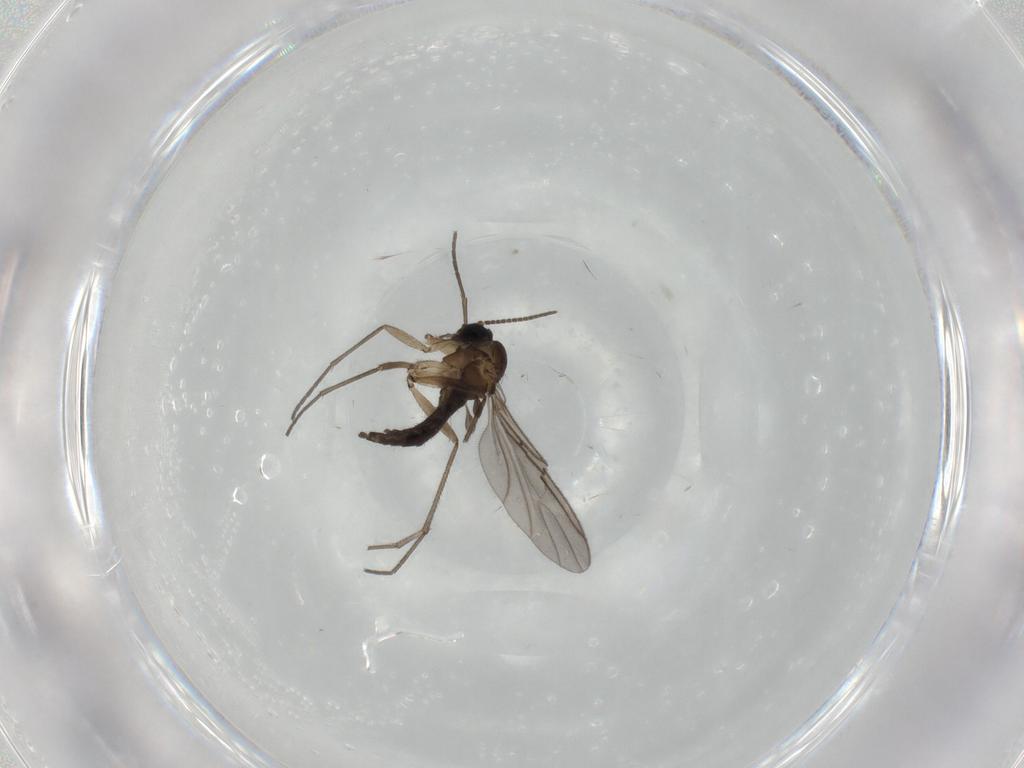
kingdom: Animalia
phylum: Arthropoda
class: Insecta
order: Diptera
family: Sciaridae
